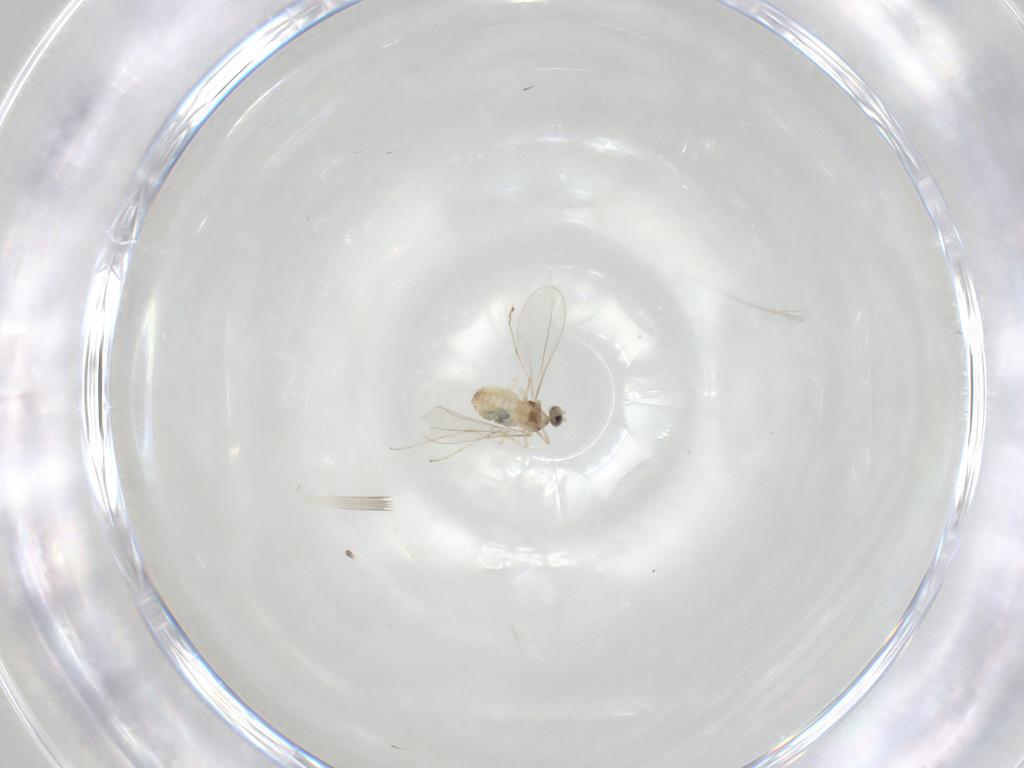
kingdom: Animalia
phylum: Arthropoda
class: Insecta
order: Diptera
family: Cecidomyiidae
